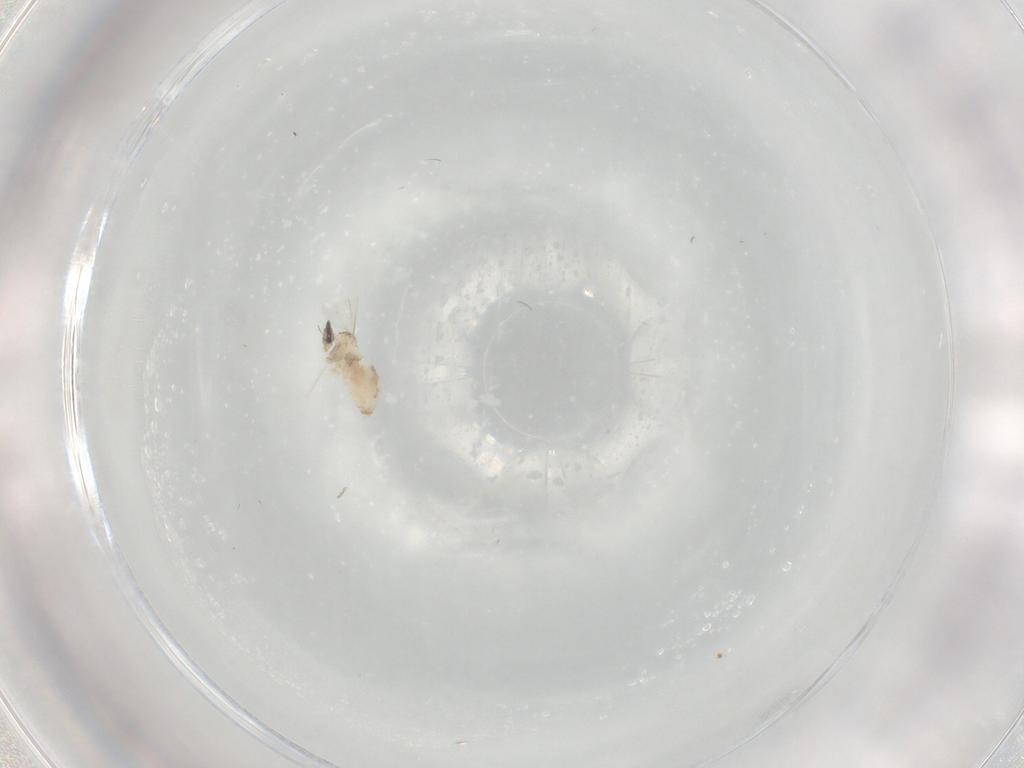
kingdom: Animalia
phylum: Arthropoda
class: Insecta
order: Diptera
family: Cecidomyiidae
